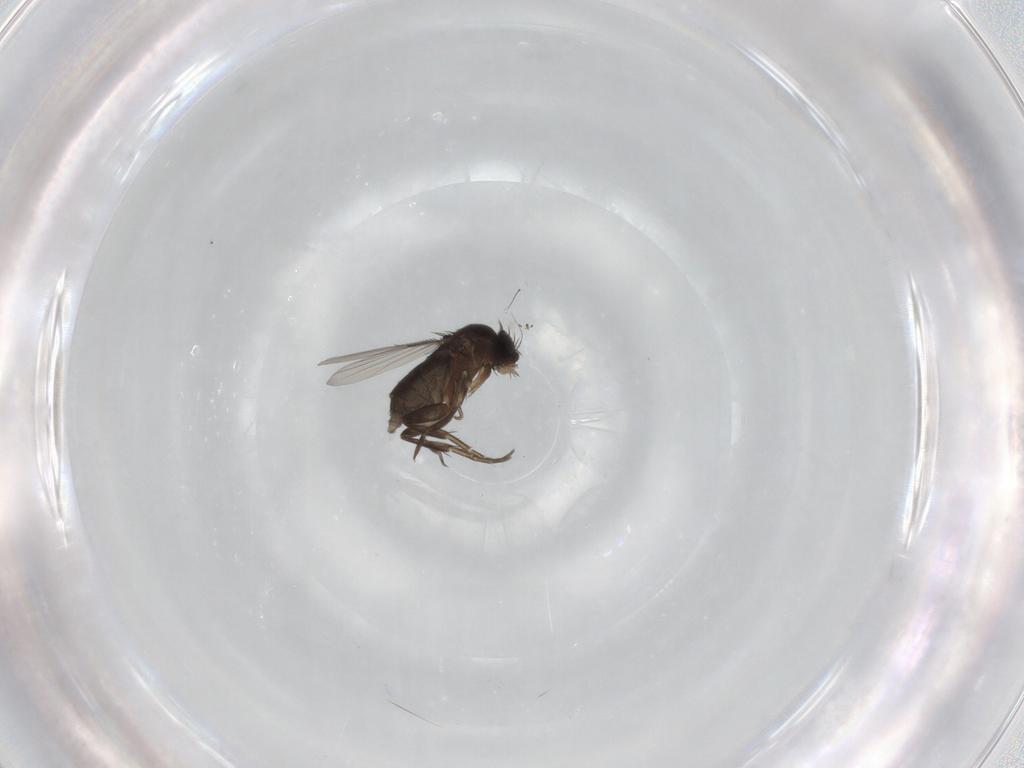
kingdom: Animalia
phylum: Arthropoda
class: Insecta
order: Diptera
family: Phoridae
